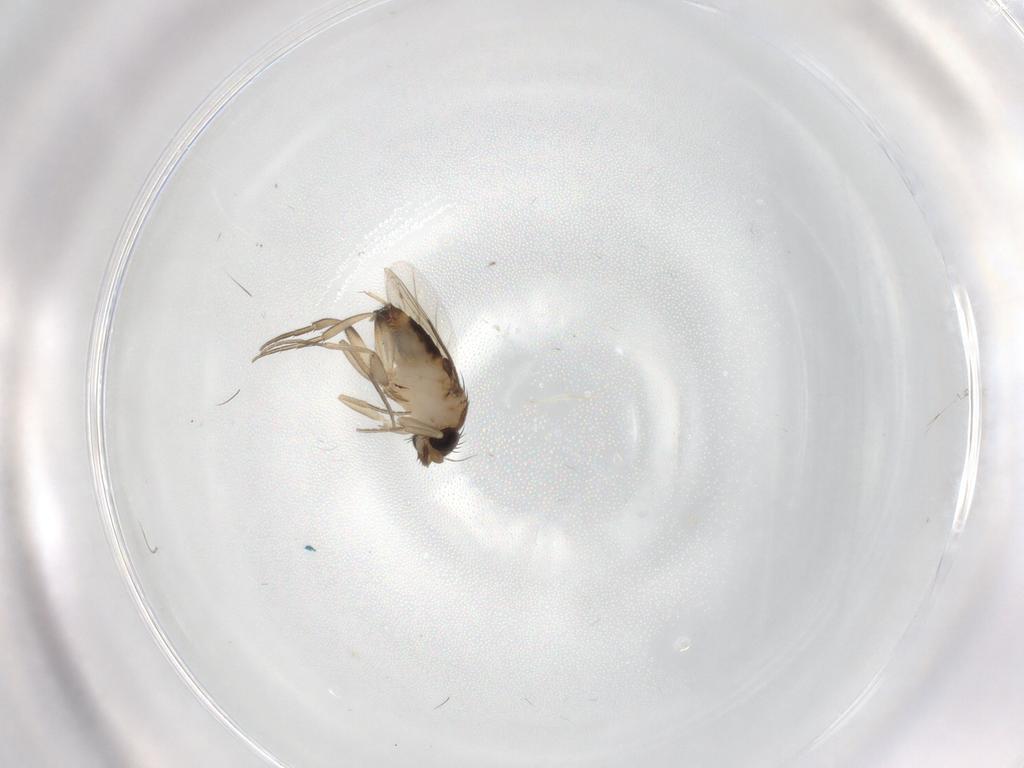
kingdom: Animalia
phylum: Arthropoda
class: Insecta
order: Diptera
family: Ceratopogonidae
